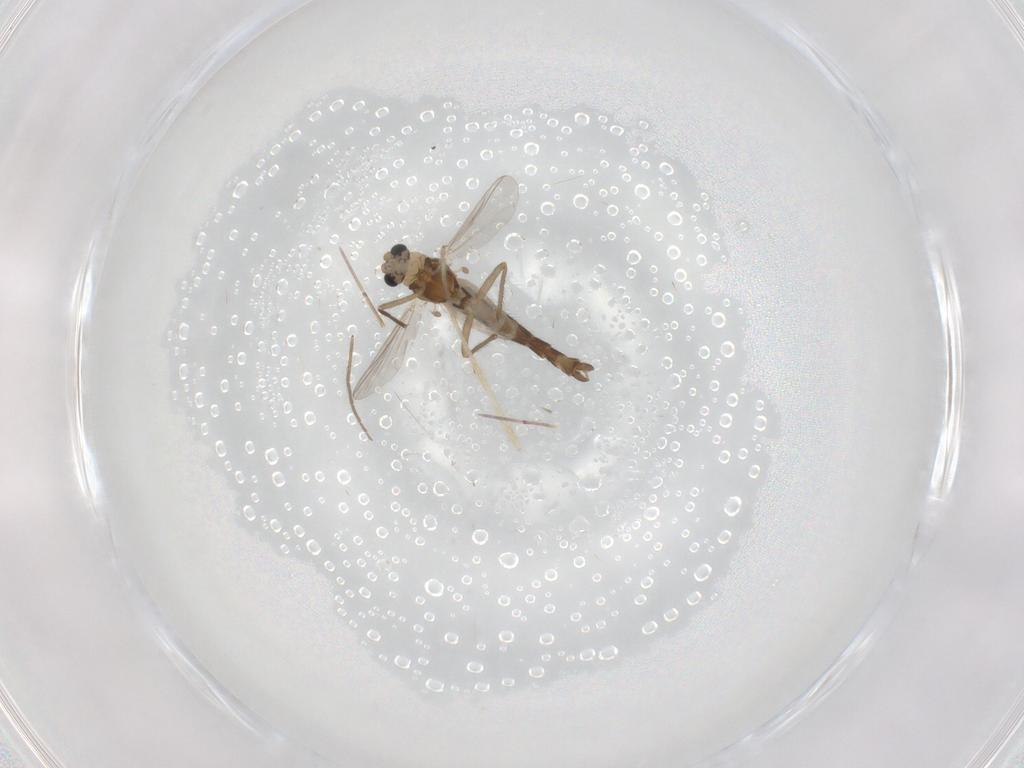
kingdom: Animalia
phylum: Arthropoda
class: Insecta
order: Diptera
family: Chironomidae
